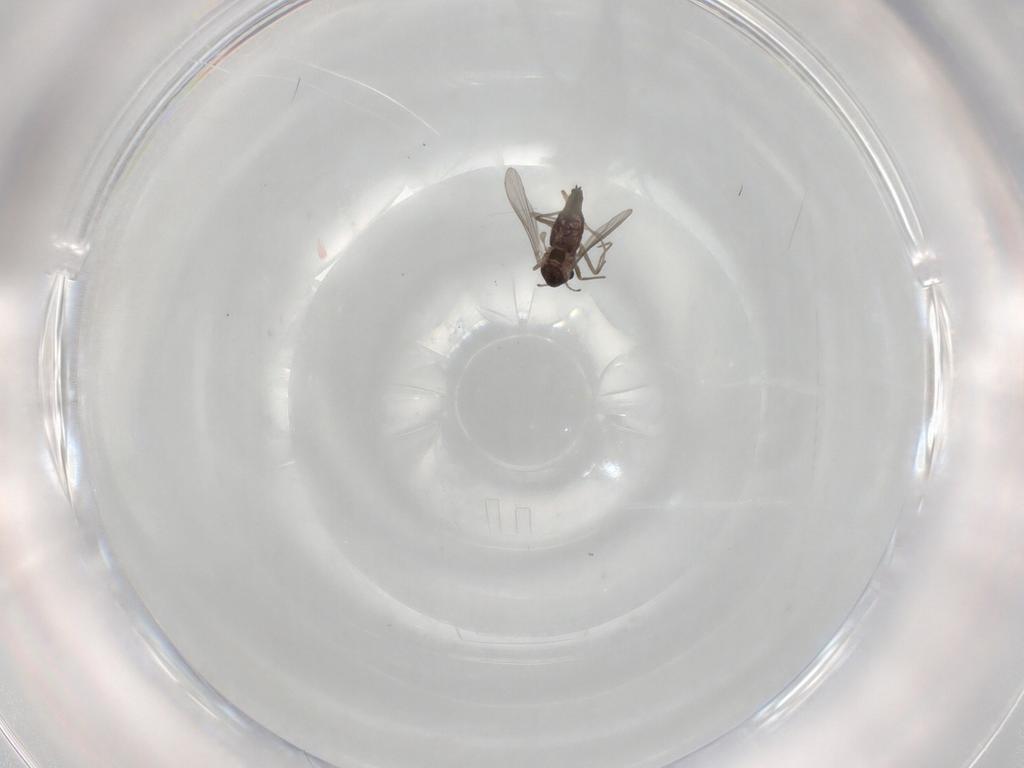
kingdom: Animalia
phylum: Arthropoda
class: Insecta
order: Diptera
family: Chironomidae
